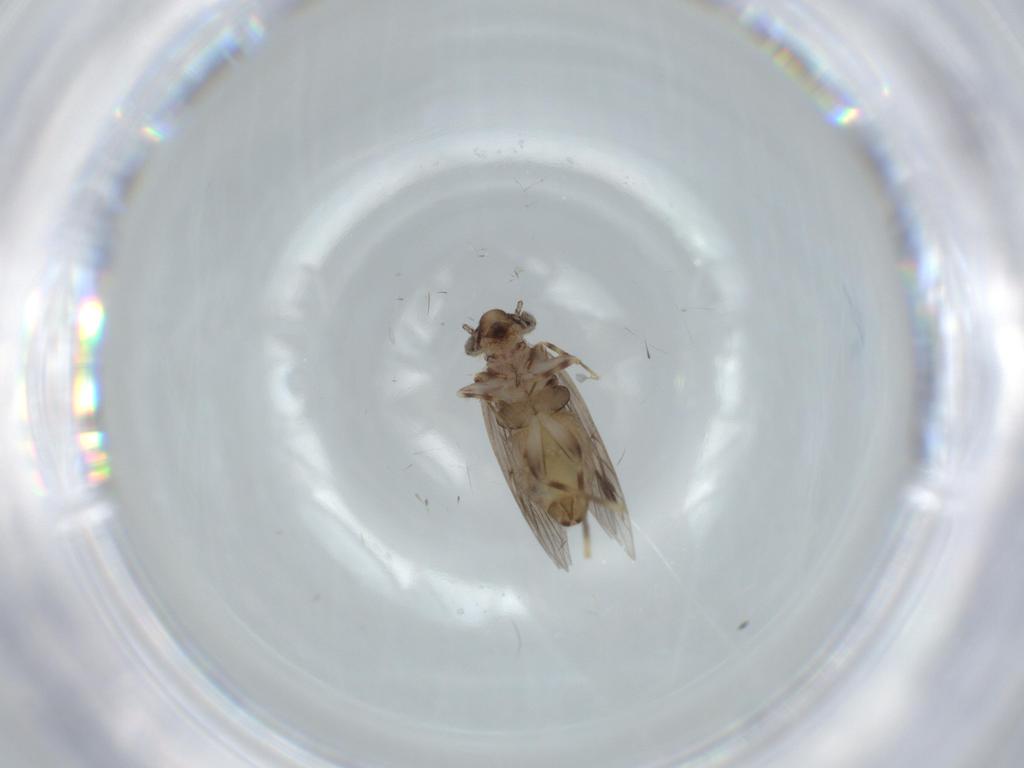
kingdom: Animalia
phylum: Arthropoda
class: Insecta
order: Psocodea
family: Lepidopsocidae
